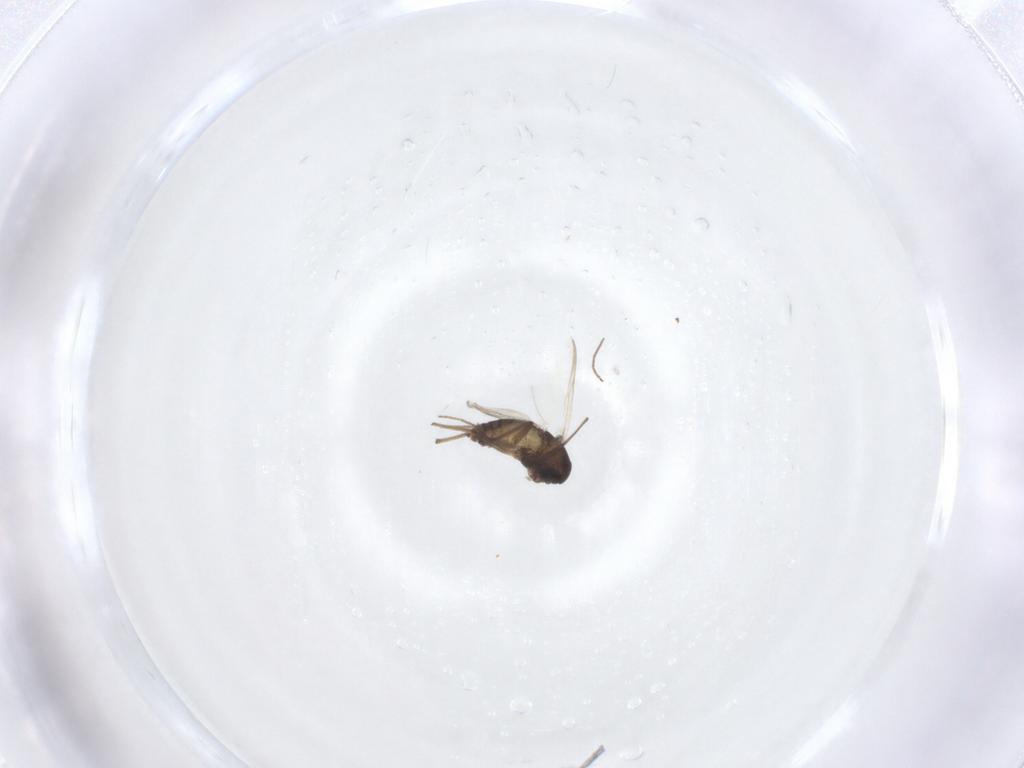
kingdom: Animalia
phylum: Arthropoda
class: Insecta
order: Diptera
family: Chironomidae
